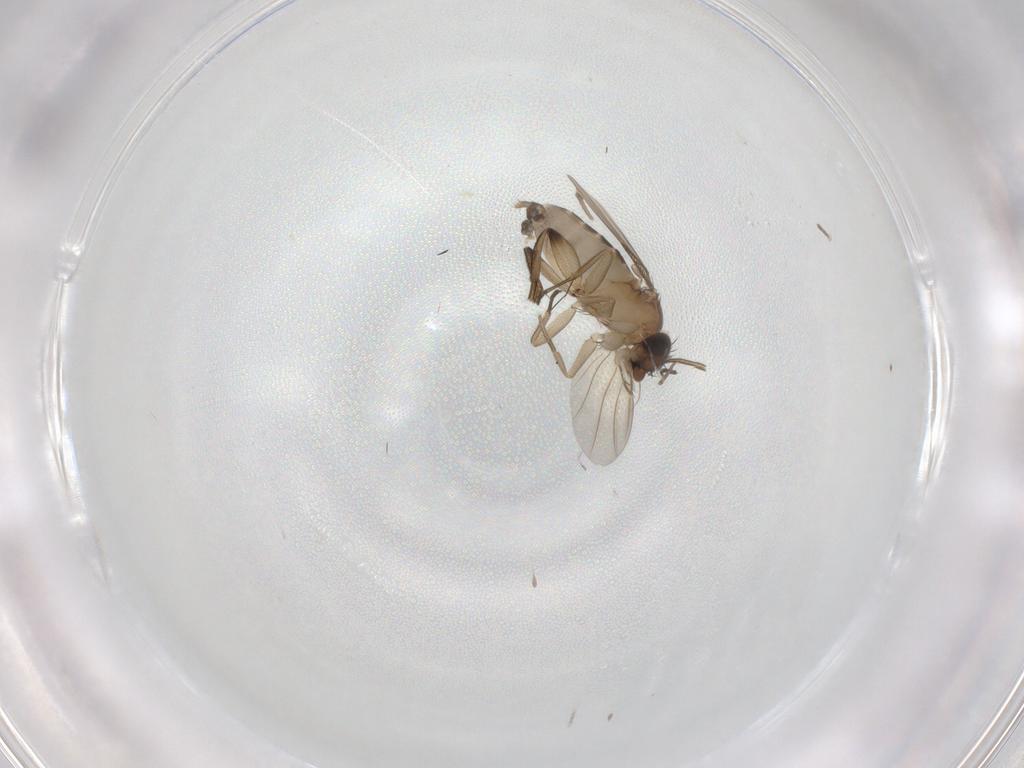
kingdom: Animalia
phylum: Arthropoda
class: Insecta
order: Diptera
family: Phoridae
